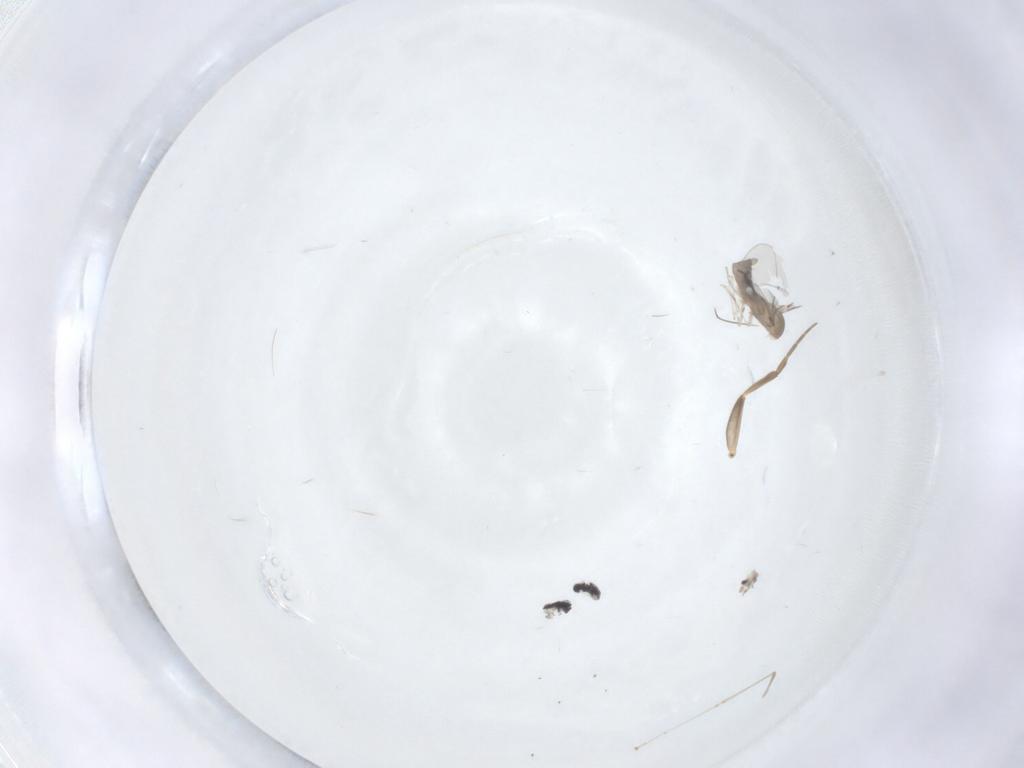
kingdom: Animalia
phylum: Arthropoda
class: Insecta
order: Diptera
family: Cecidomyiidae
